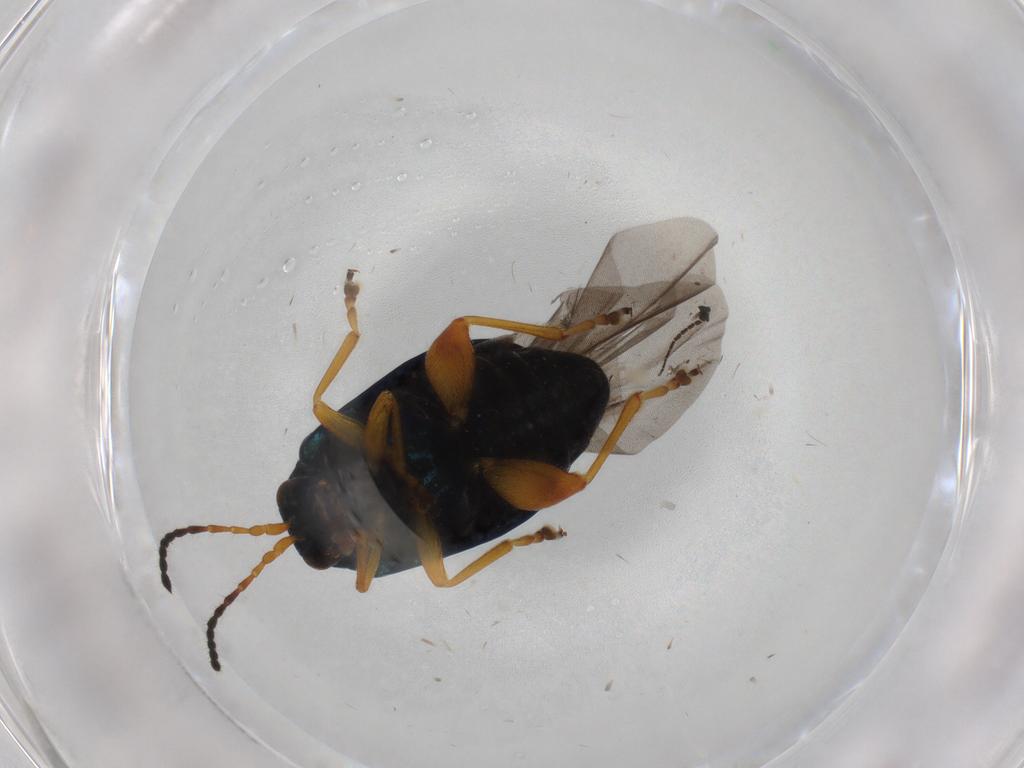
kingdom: Animalia
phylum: Arthropoda
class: Insecta
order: Coleoptera
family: Chrysomelidae
